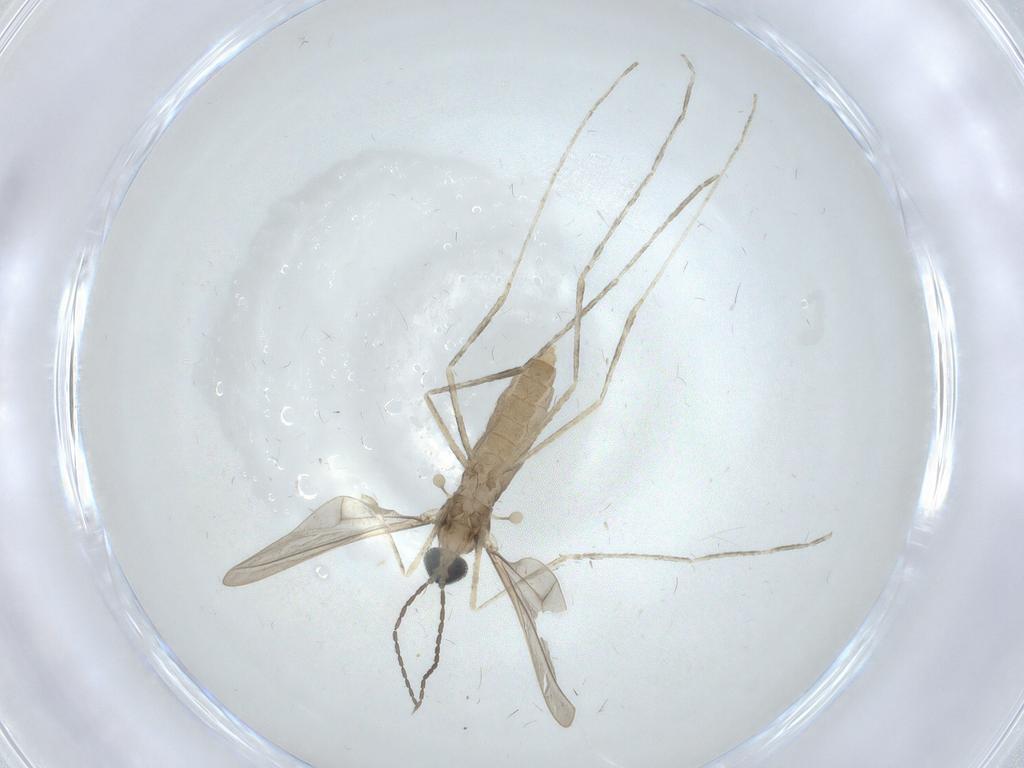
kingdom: Animalia
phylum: Arthropoda
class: Insecta
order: Diptera
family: Cecidomyiidae
